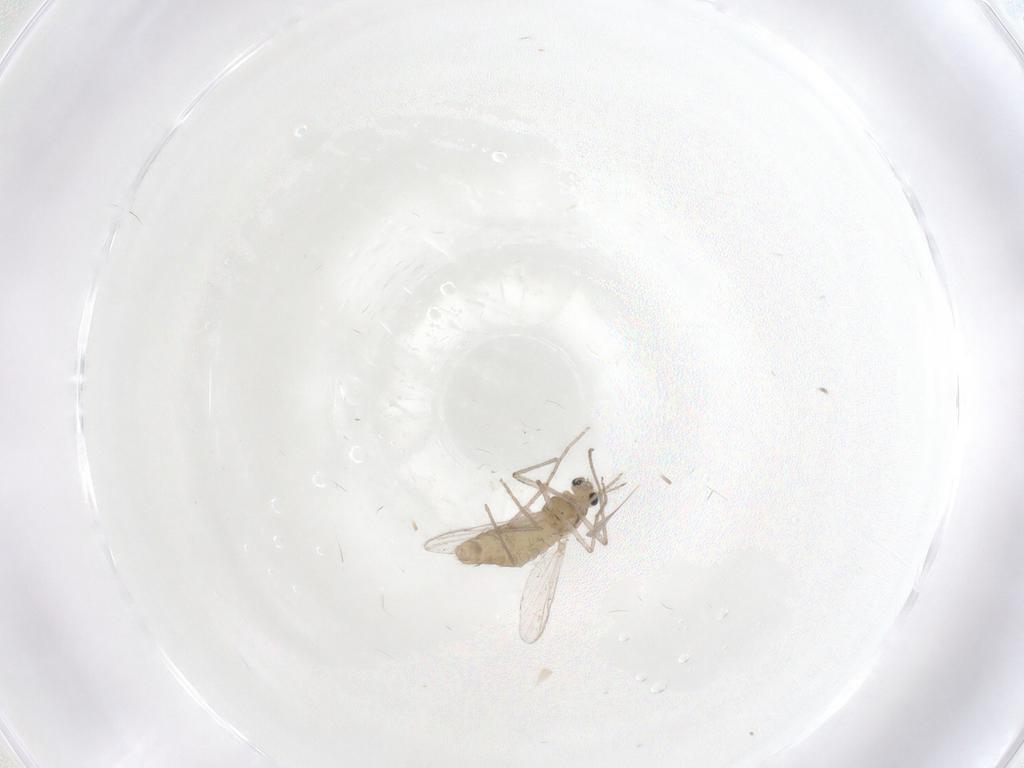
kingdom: Animalia
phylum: Arthropoda
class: Insecta
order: Diptera
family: Chironomidae
